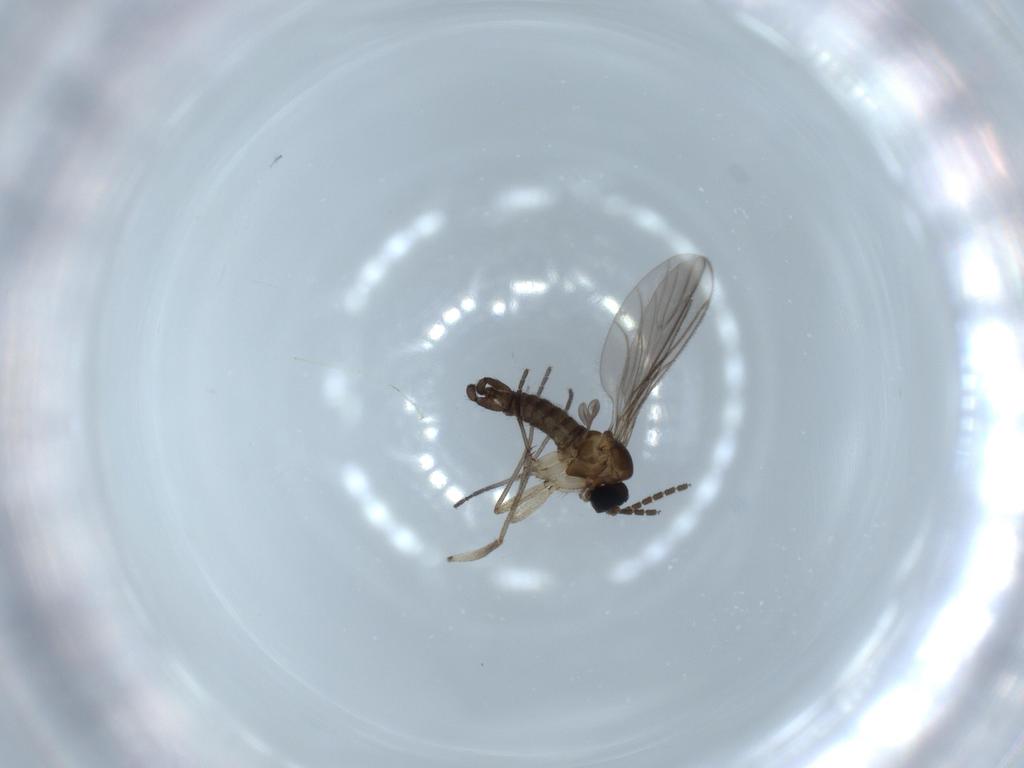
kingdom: Animalia
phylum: Arthropoda
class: Insecta
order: Diptera
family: Sciaridae
